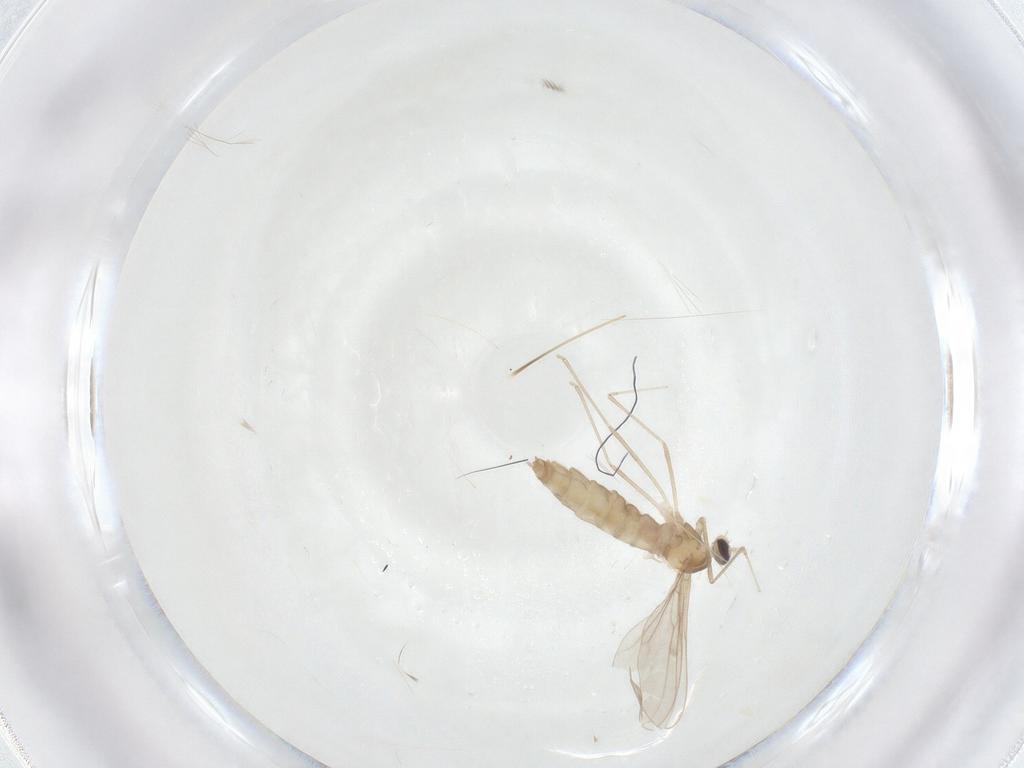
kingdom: Animalia
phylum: Arthropoda
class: Insecta
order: Diptera
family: Cecidomyiidae
